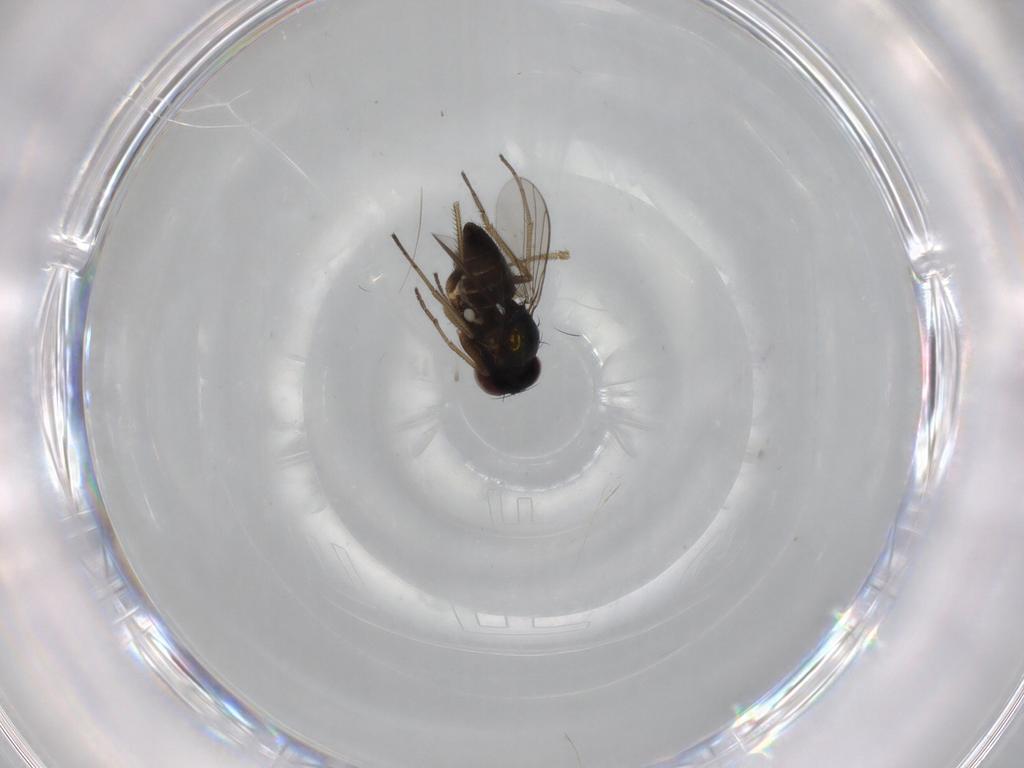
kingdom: Animalia
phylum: Arthropoda
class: Insecta
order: Diptera
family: Dolichopodidae
